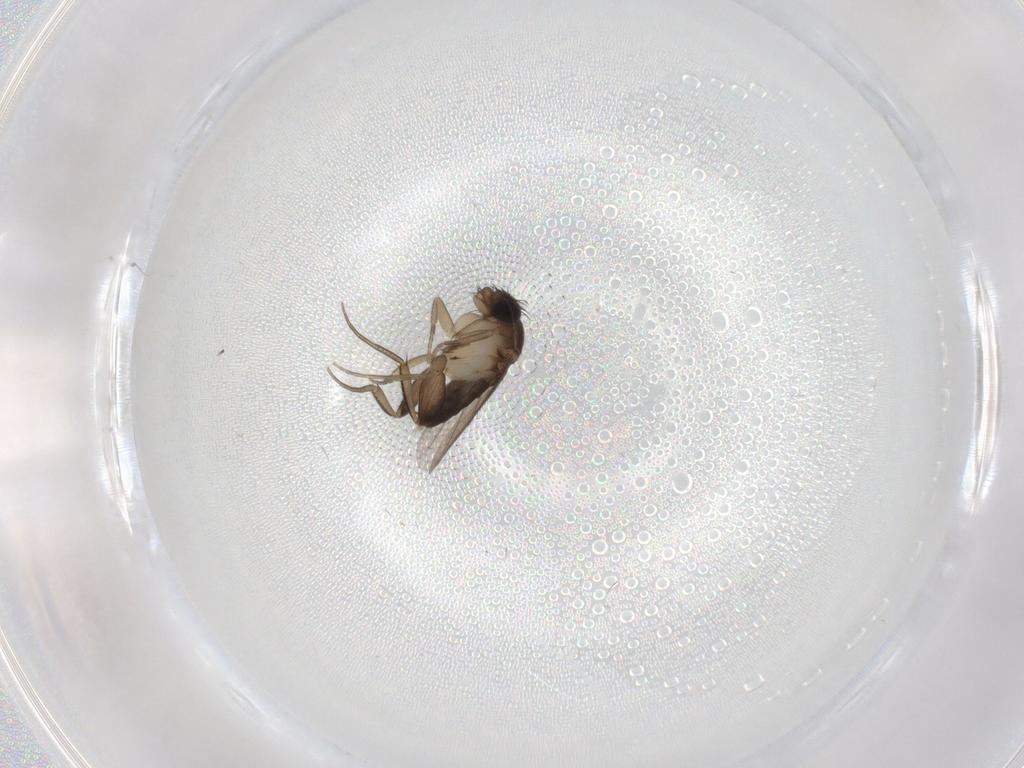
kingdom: Animalia
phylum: Arthropoda
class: Insecta
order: Diptera
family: Phoridae
